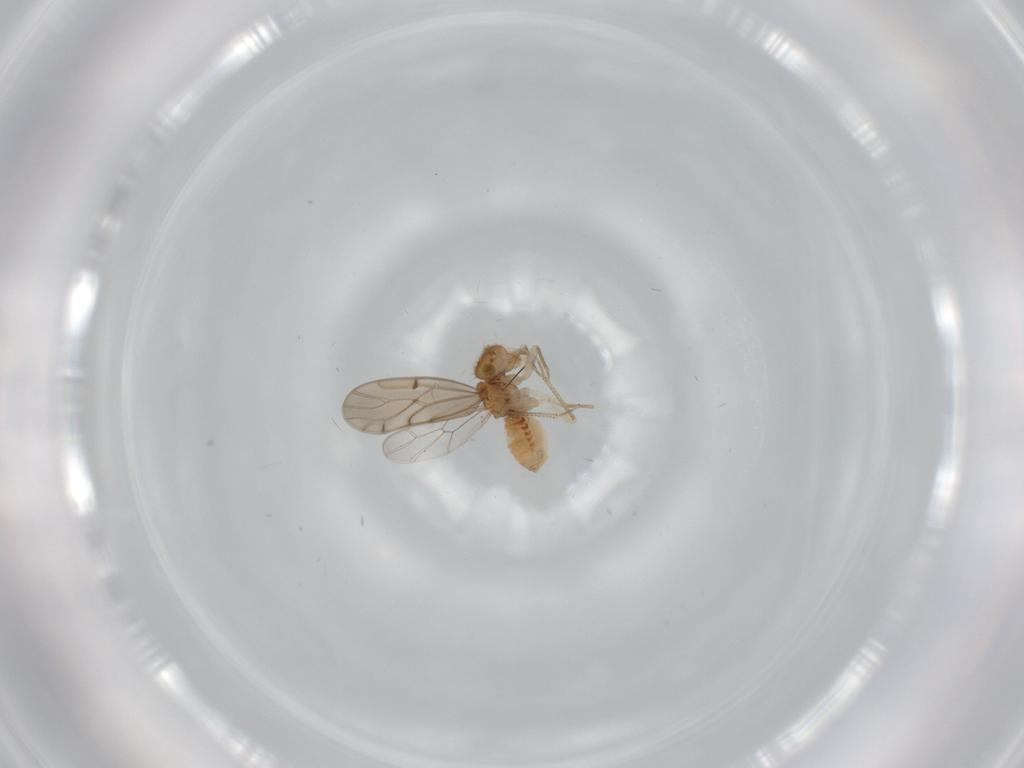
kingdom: Animalia
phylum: Arthropoda
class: Insecta
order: Psocodea
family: Ectopsocidae
